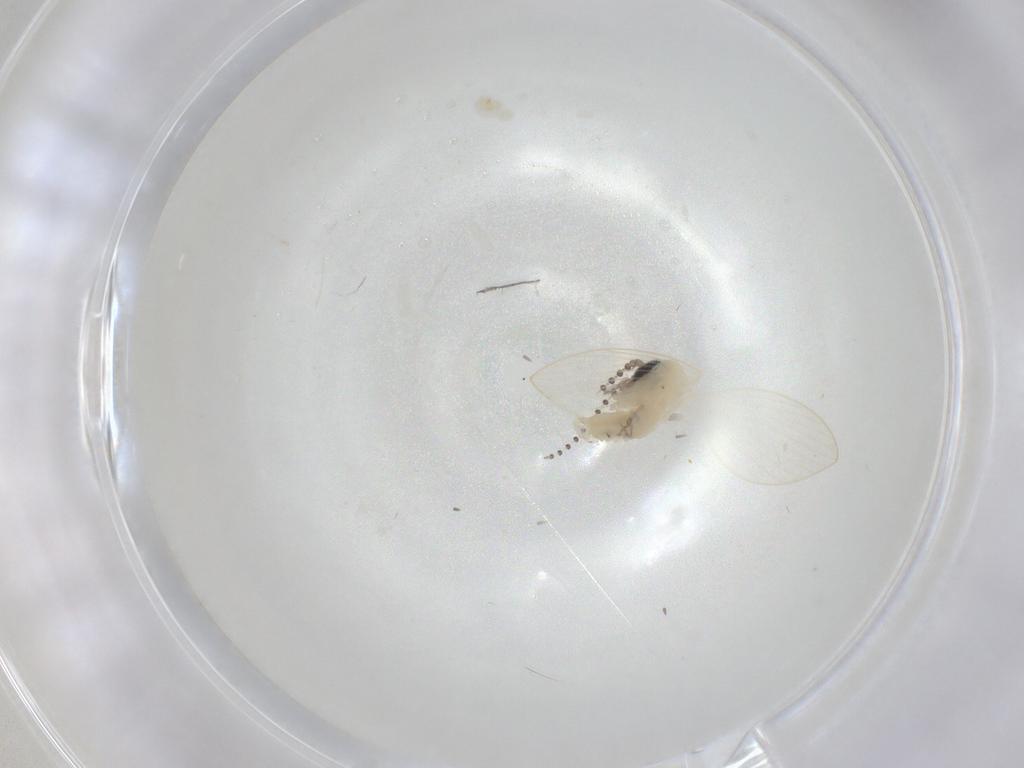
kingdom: Animalia
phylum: Arthropoda
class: Insecta
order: Diptera
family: Psychodidae
